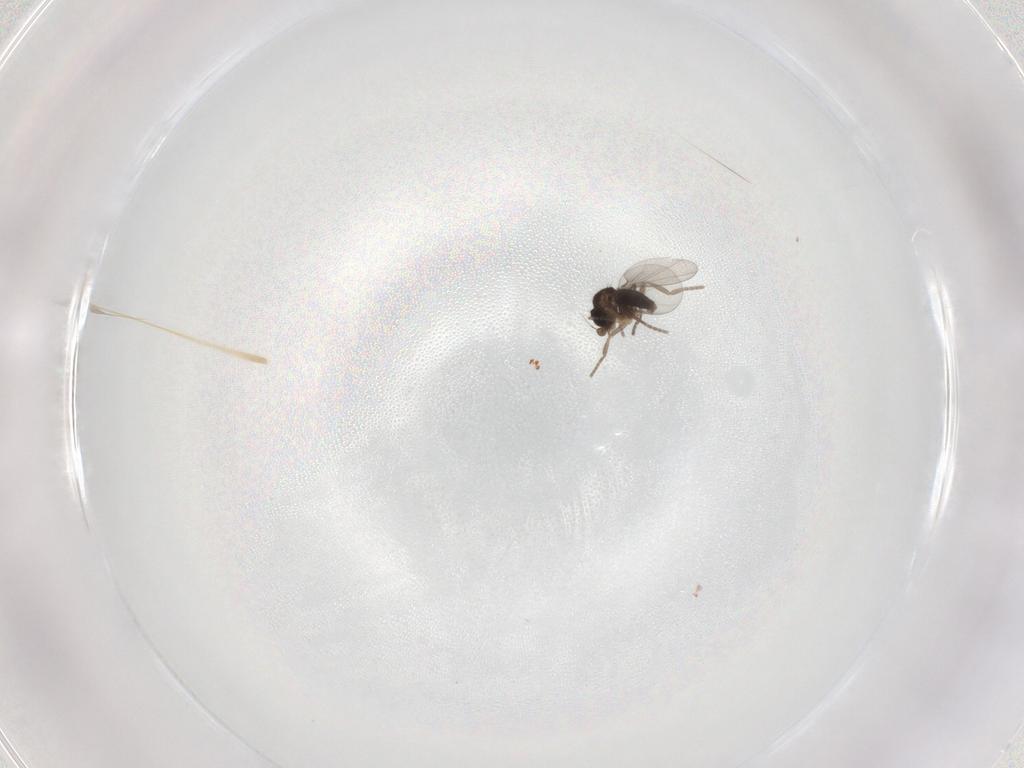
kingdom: Animalia
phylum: Arthropoda
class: Insecta
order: Diptera
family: Phoridae
